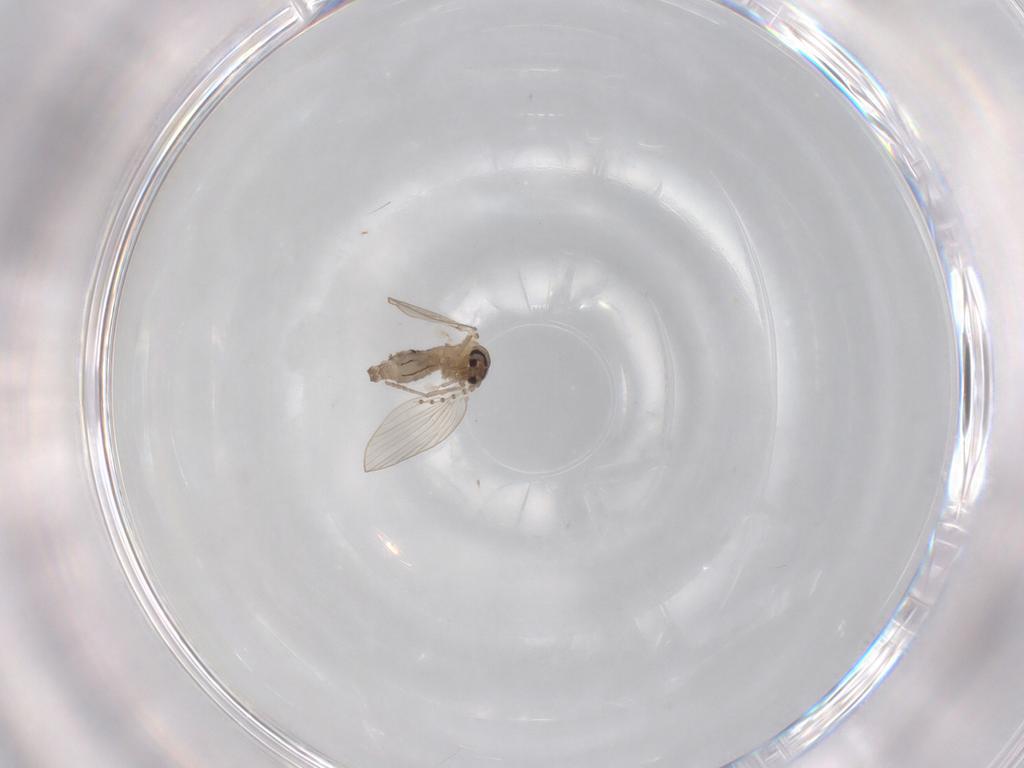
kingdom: Animalia
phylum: Arthropoda
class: Insecta
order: Diptera
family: Psychodidae
